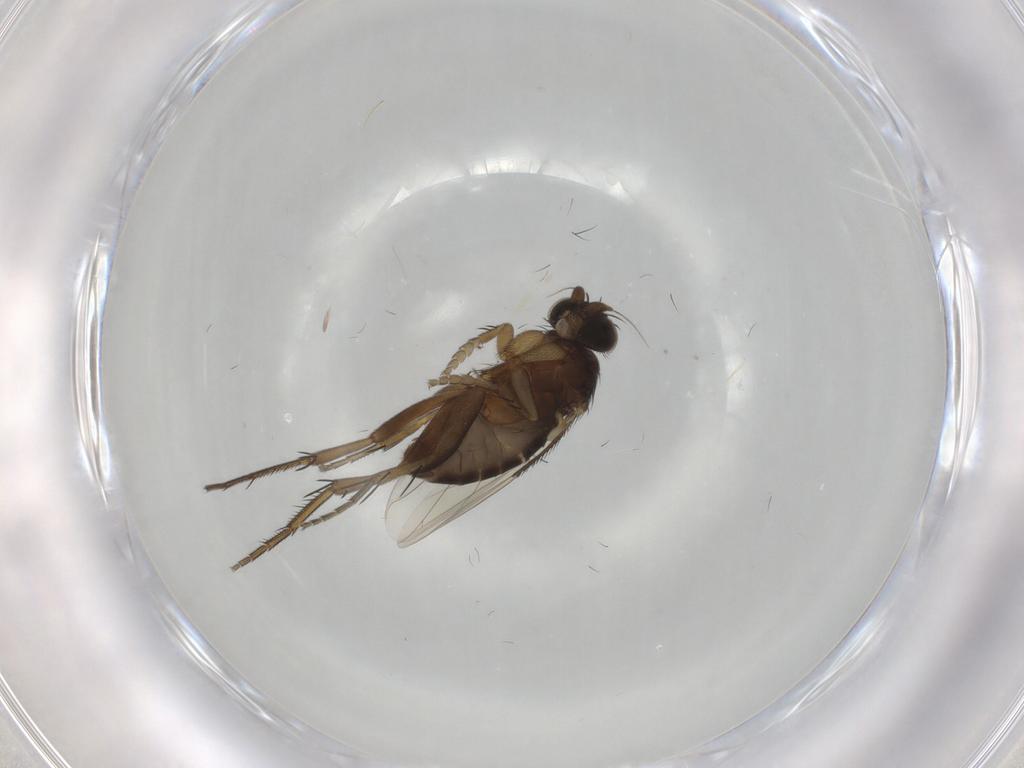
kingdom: Animalia
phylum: Arthropoda
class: Insecta
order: Diptera
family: Phoridae
